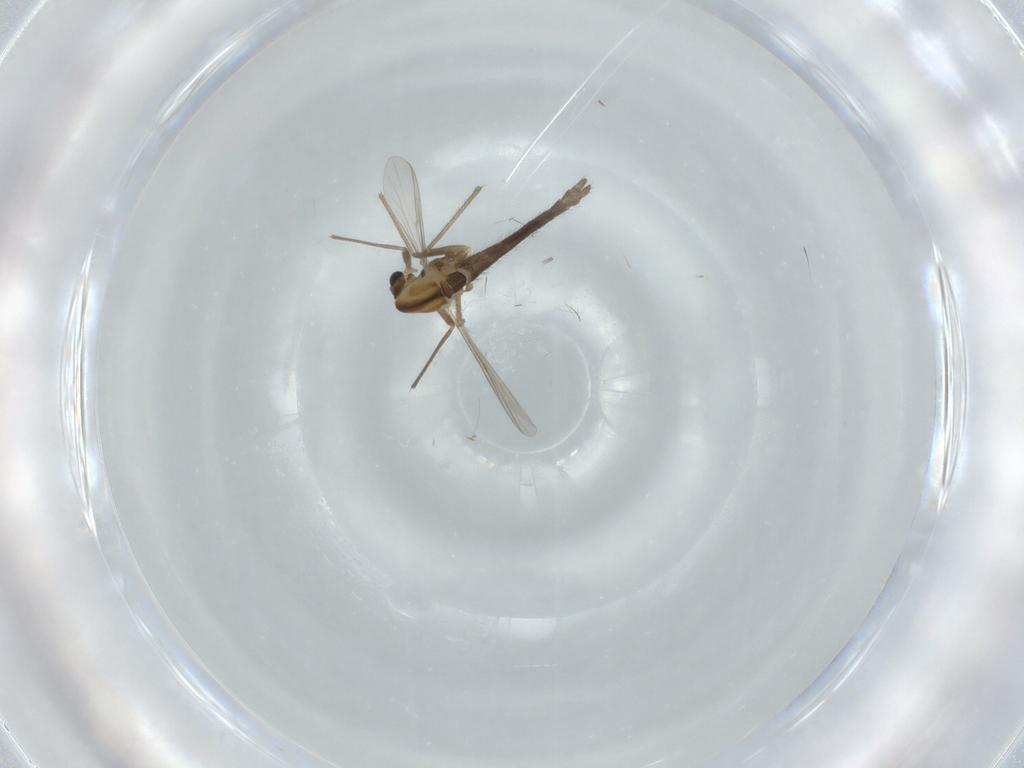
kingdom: Animalia
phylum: Arthropoda
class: Insecta
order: Diptera
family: Chironomidae
